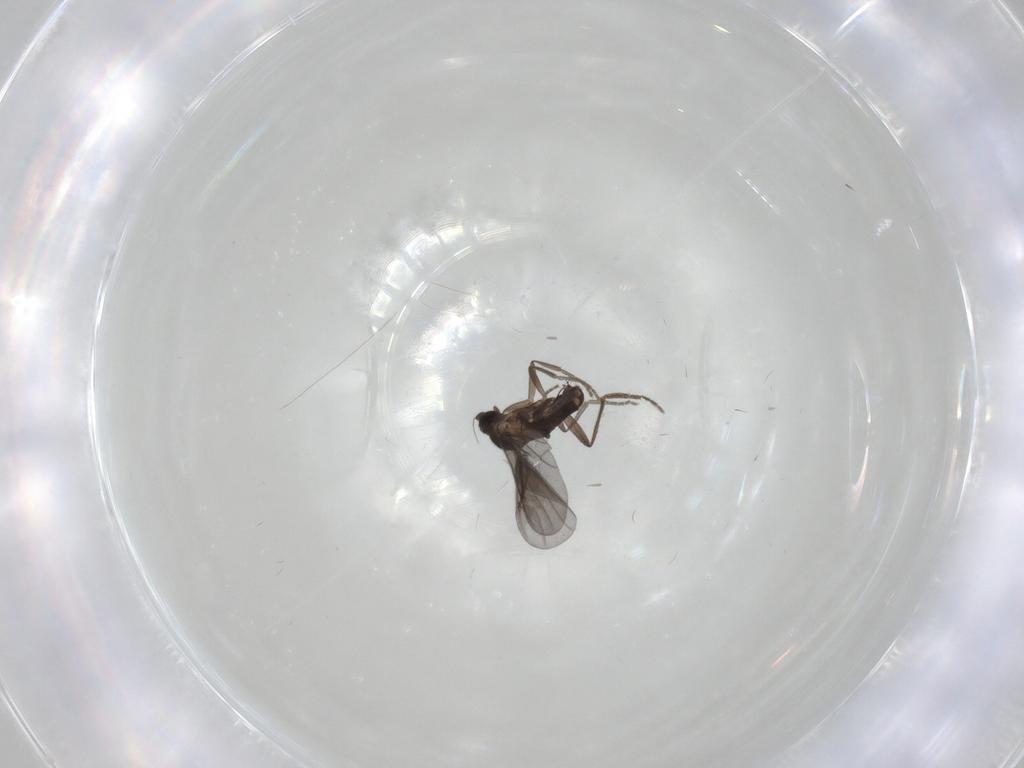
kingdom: Animalia
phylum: Arthropoda
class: Insecta
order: Diptera
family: Phoridae
